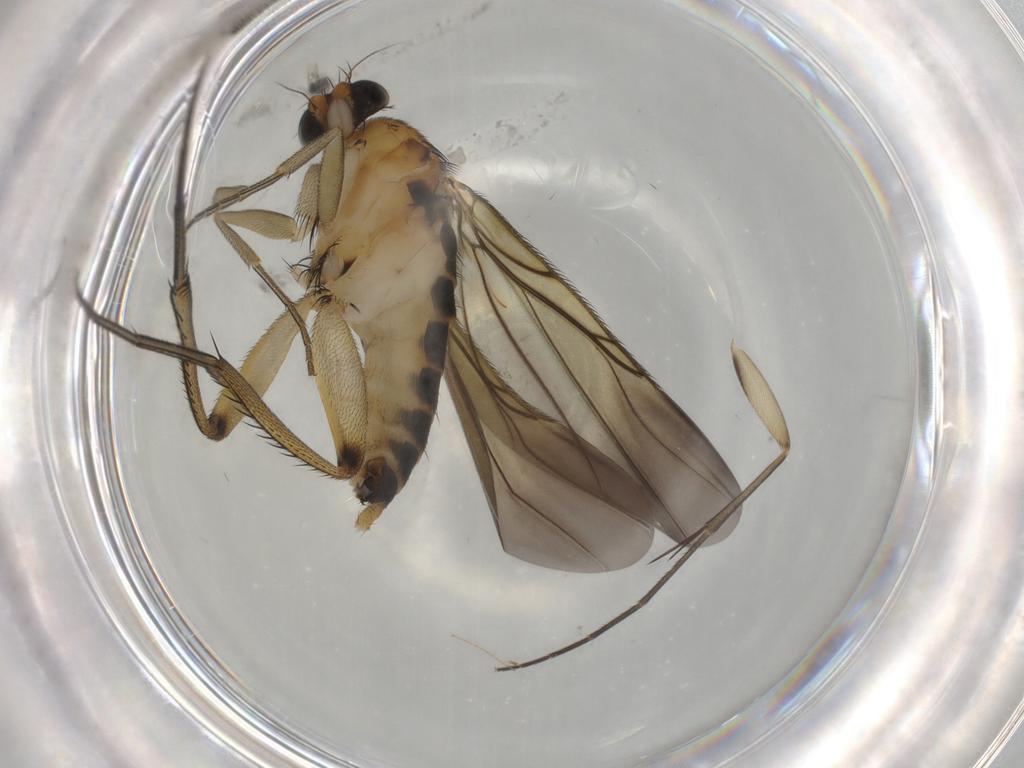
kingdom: Animalia
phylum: Arthropoda
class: Insecta
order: Diptera
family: Phoridae
